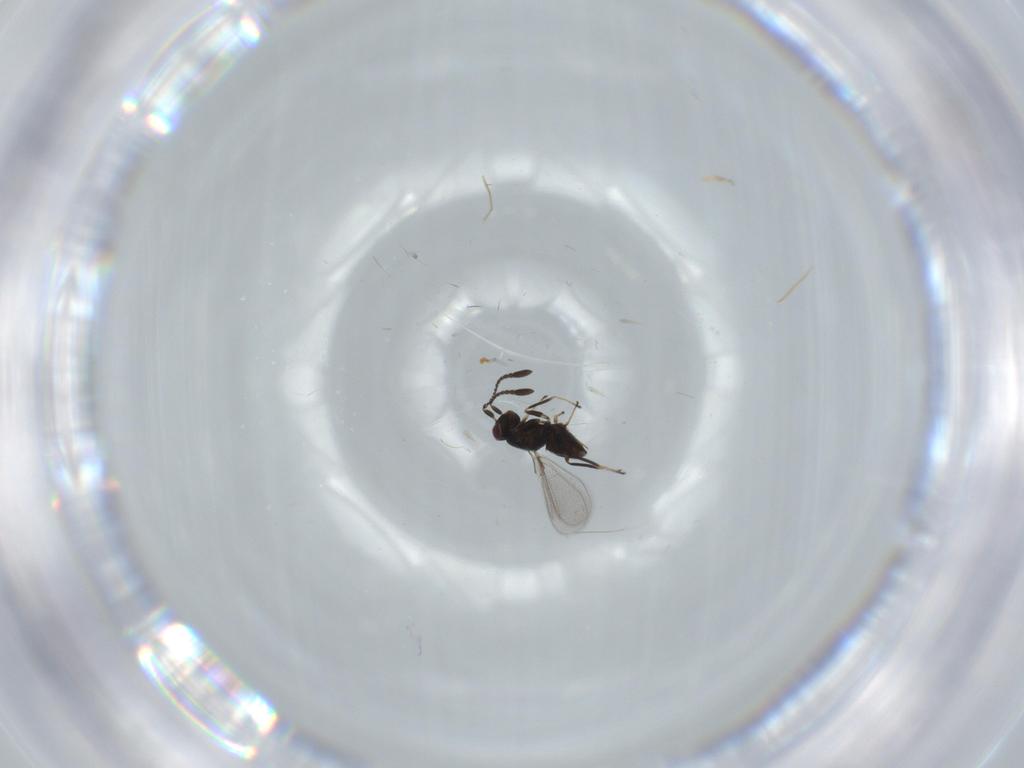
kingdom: Animalia
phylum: Arthropoda
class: Insecta
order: Hymenoptera
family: Mymaridae
